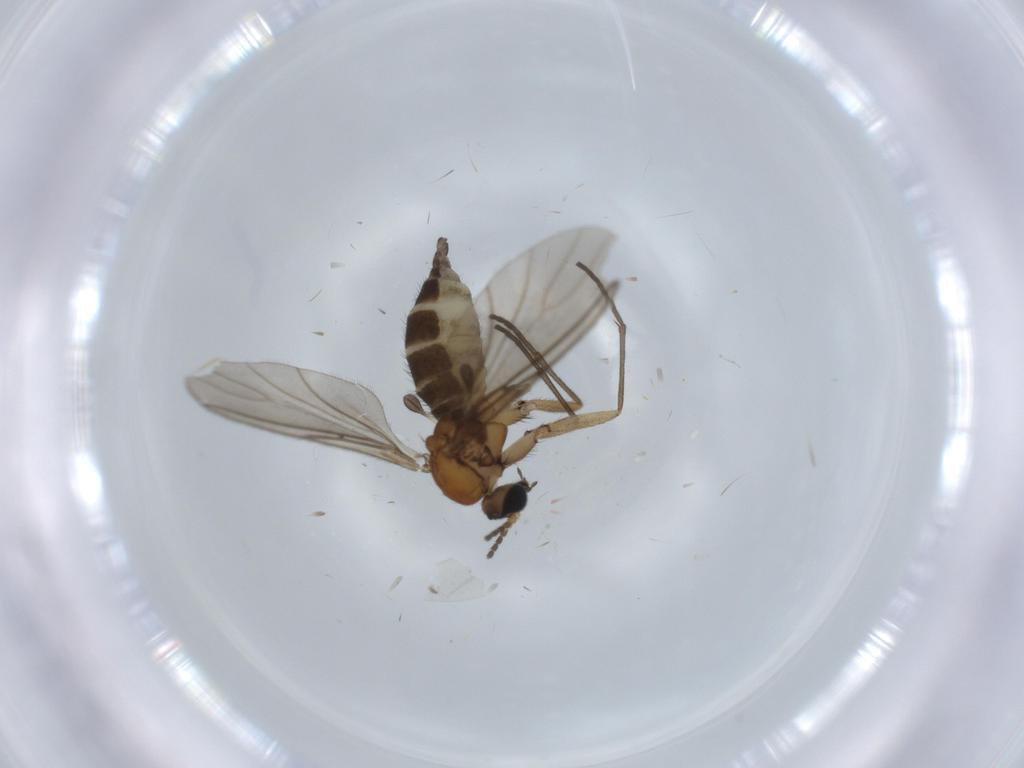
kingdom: Animalia
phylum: Arthropoda
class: Insecta
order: Diptera
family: Sciaridae
